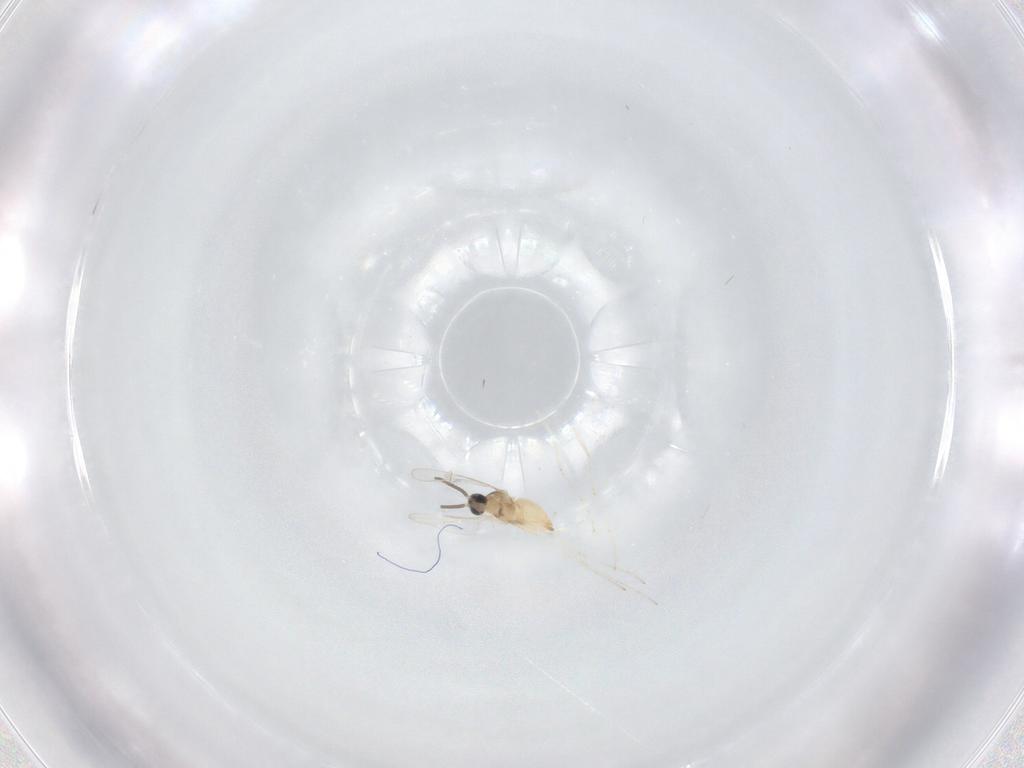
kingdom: Animalia
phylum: Arthropoda
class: Insecta
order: Diptera
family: Cecidomyiidae
